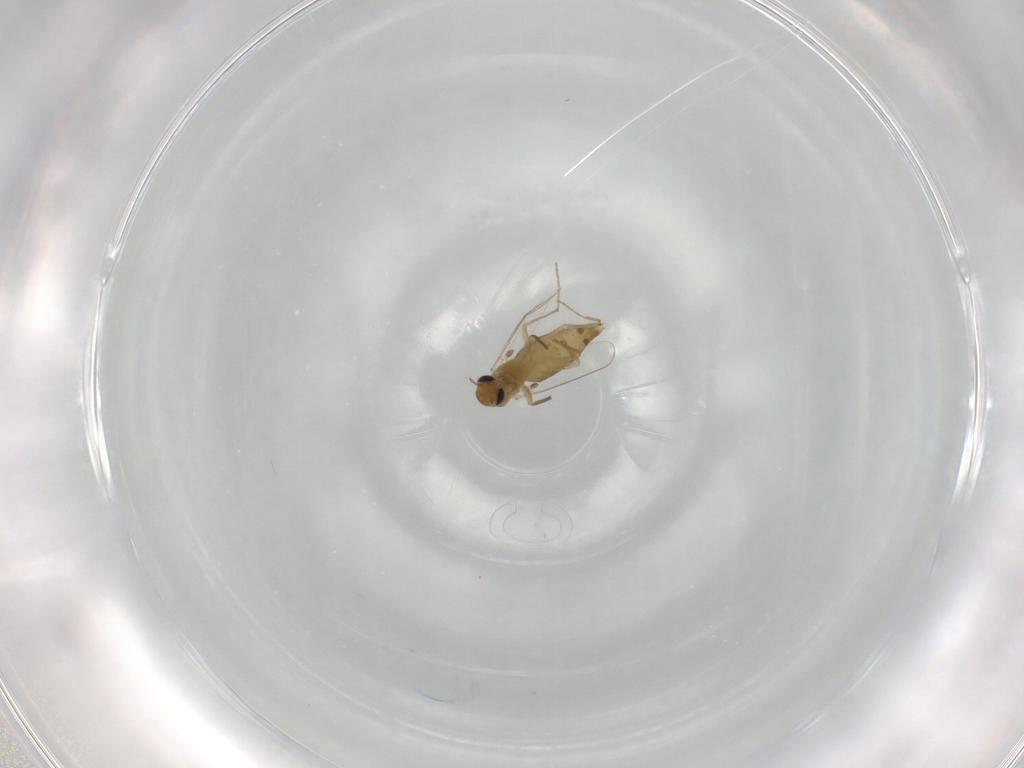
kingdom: Animalia
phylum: Arthropoda
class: Insecta
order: Diptera
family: Chironomidae
